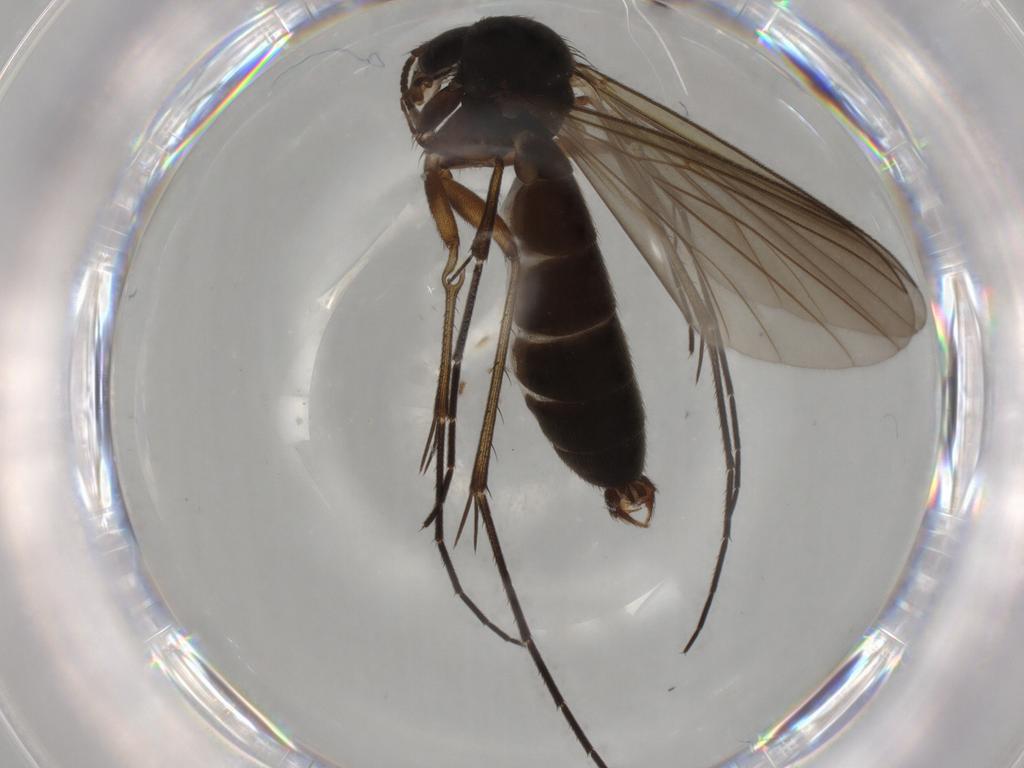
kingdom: Animalia
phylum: Arthropoda
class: Insecta
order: Diptera
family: Mycetophilidae
